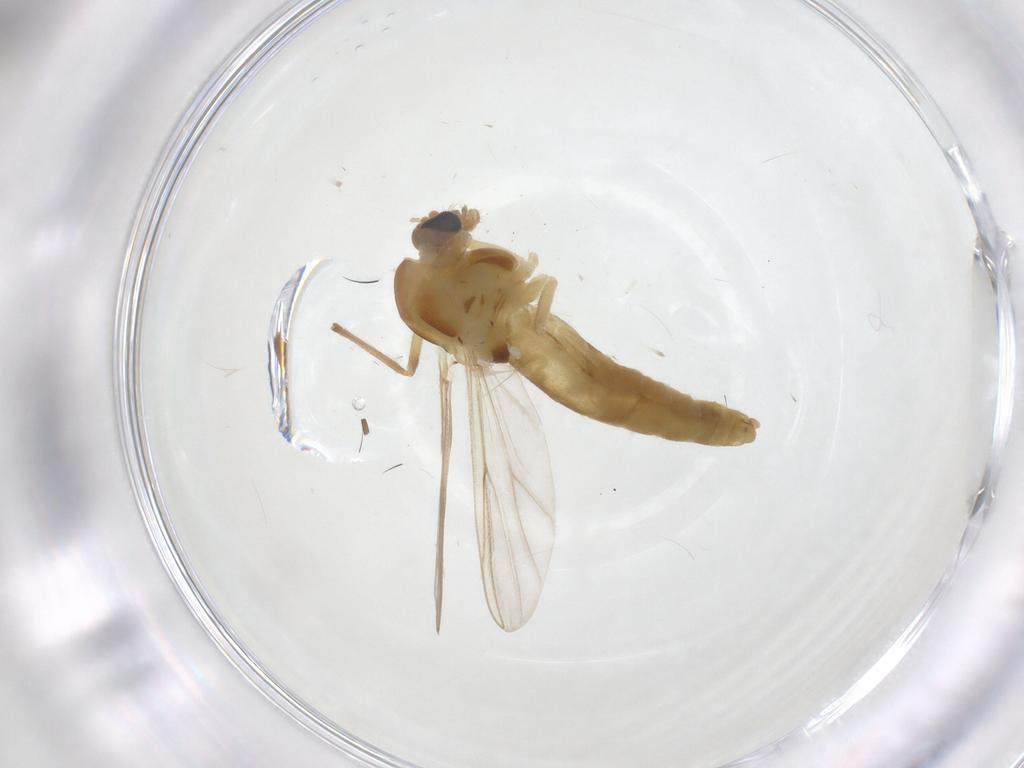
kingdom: Animalia
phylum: Arthropoda
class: Insecta
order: Diptera
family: Chironomidae
